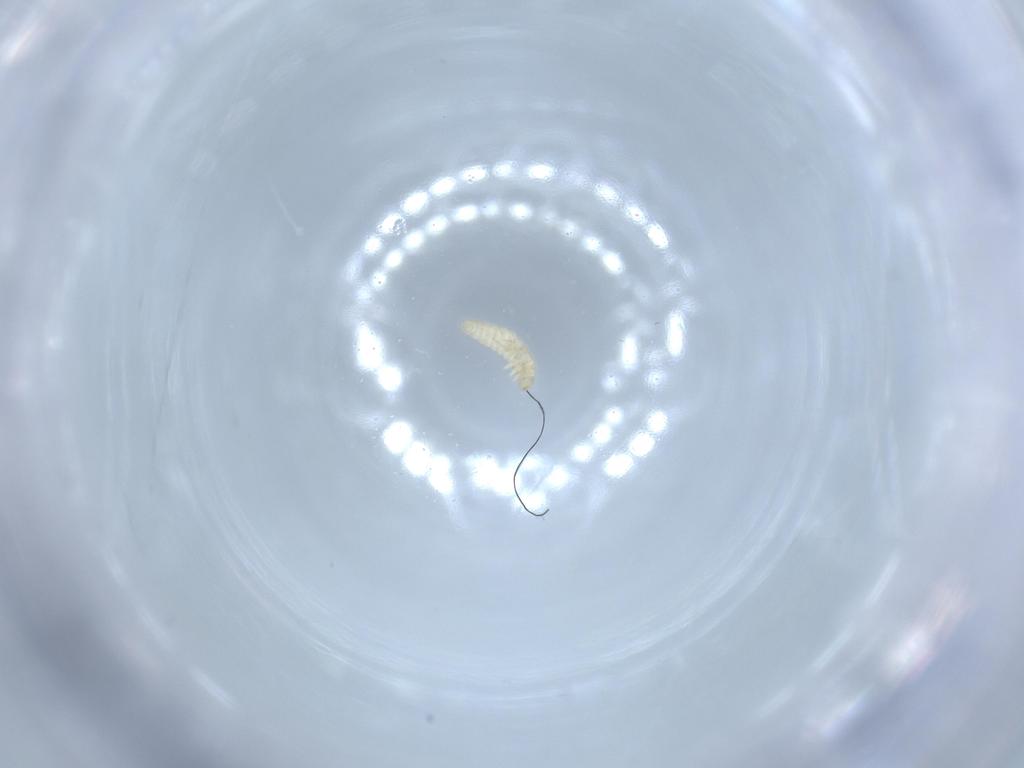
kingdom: Animalia
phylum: Arthropoda
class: Insecta
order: Coleoptera
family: Cantharidae
